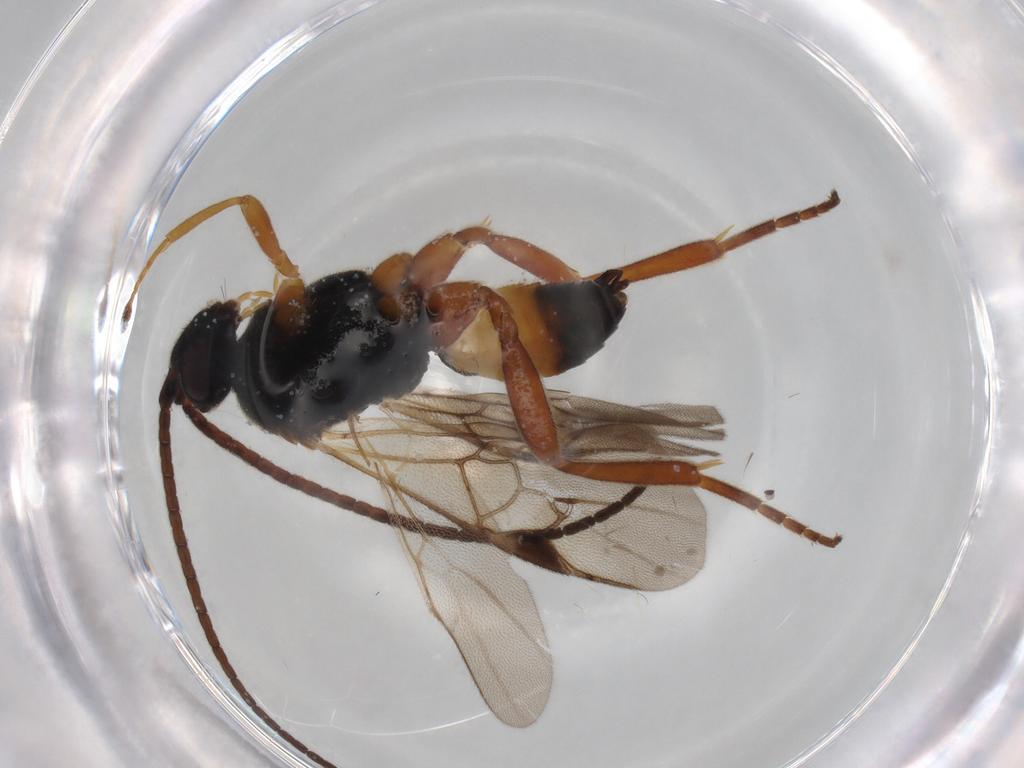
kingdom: Animalia
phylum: Arthropoda
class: Insecta
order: Hymenoptera
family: Braconidae
